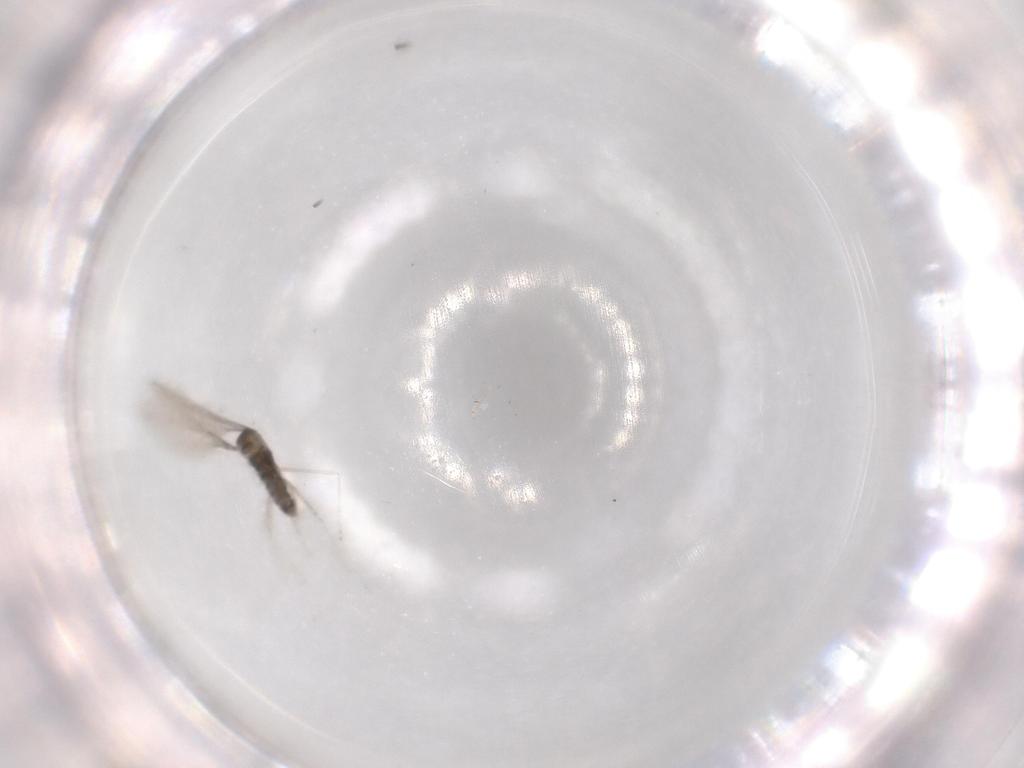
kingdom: Animalia
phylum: Arthropoda
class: Insecta
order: Diptera
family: Cecidomyiidae
